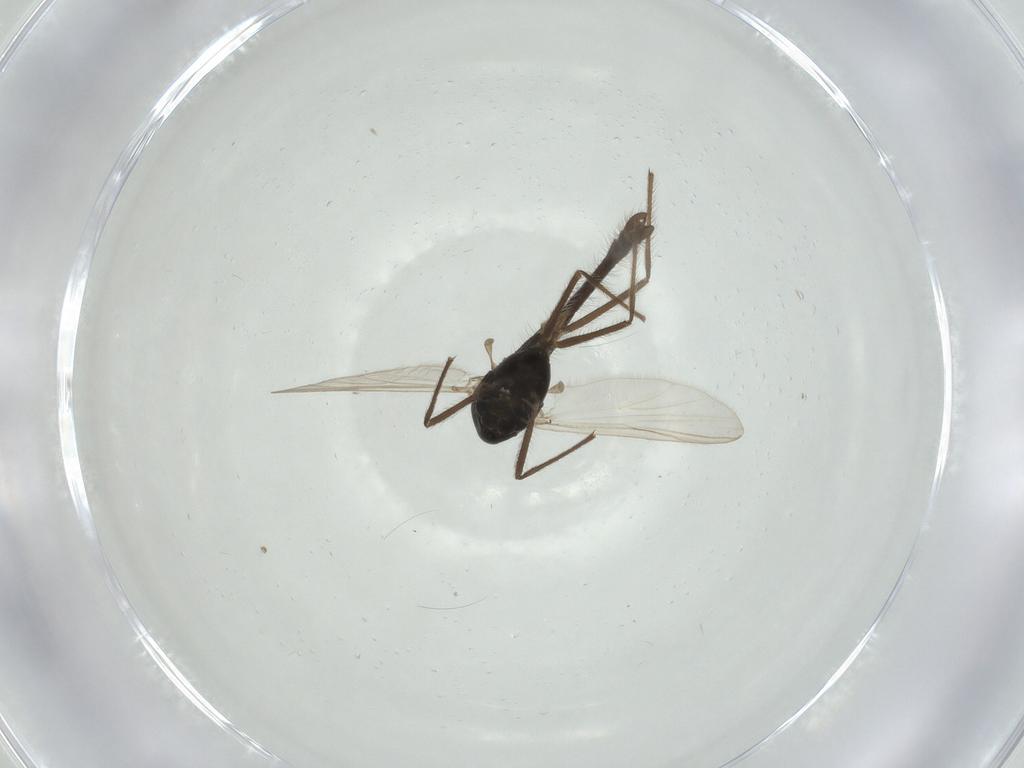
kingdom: Animalia
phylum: Arthropoda
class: Insecta
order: Diptera
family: Chironomidae
